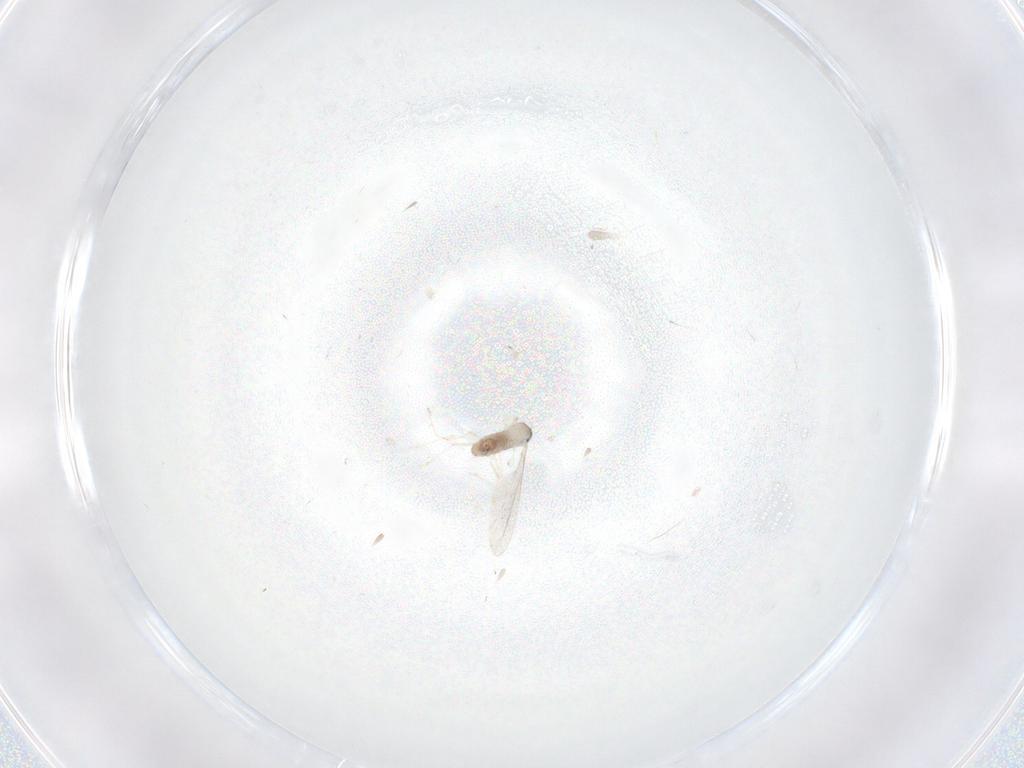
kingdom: Animalia
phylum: Arthropoda
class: Insecta
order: Diptera
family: Cecidomyiidae
